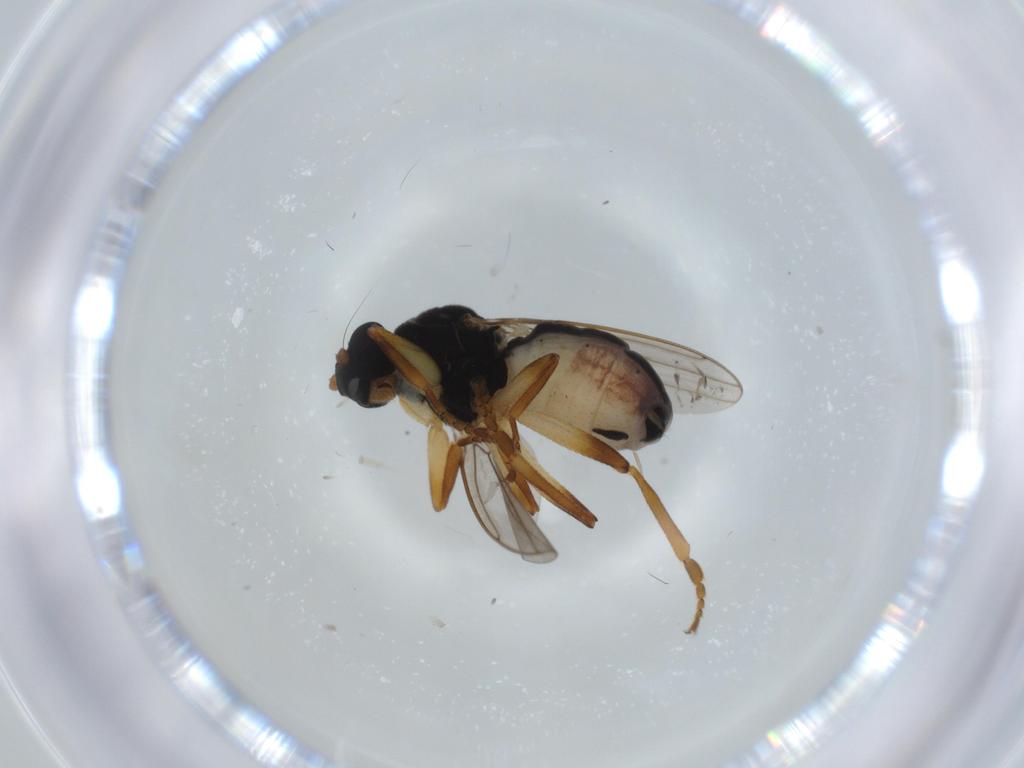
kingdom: Animalia
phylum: Arthropoda
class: Insecta
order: Diptera
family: Sphaeroceridae
